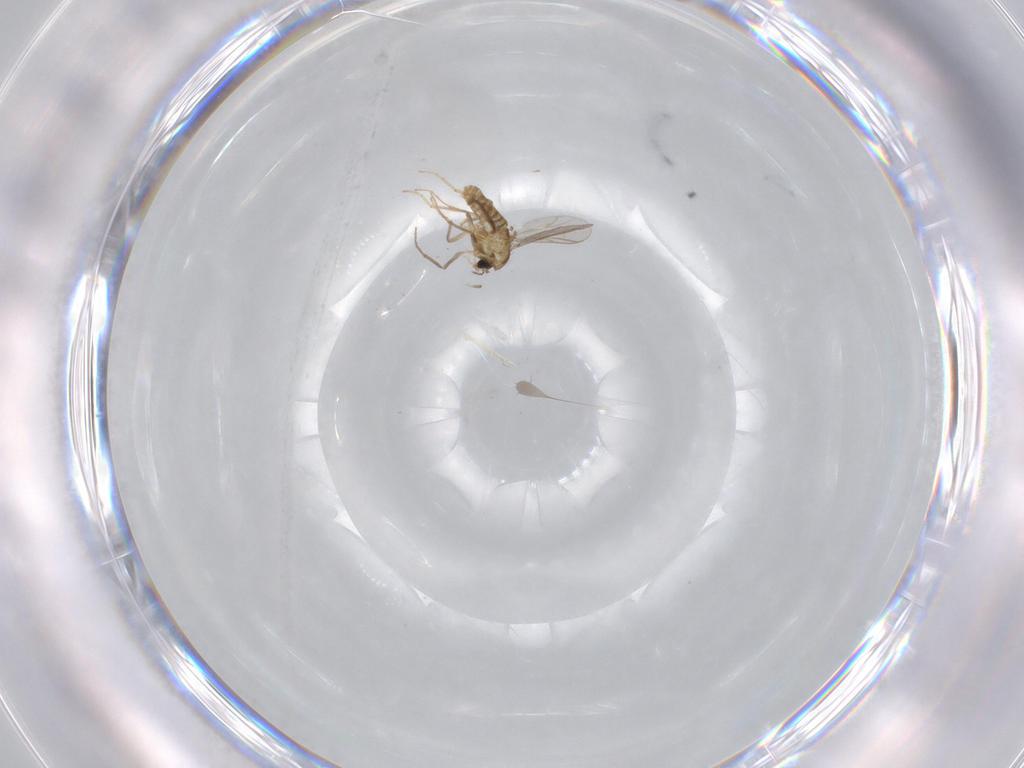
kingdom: Animalia
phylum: Arthropoda
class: Insecta
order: Diptera
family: Chironomidae
